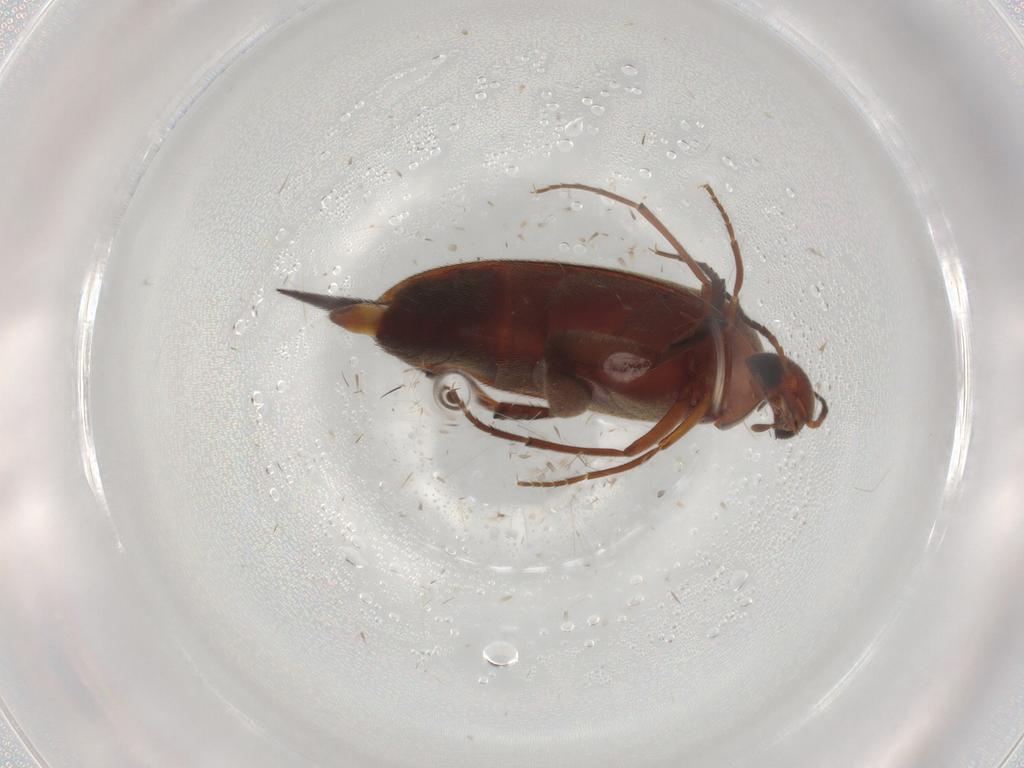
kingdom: Animalia
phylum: Arthropoda
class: Insecta
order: Coleoptera
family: Mordellidae
